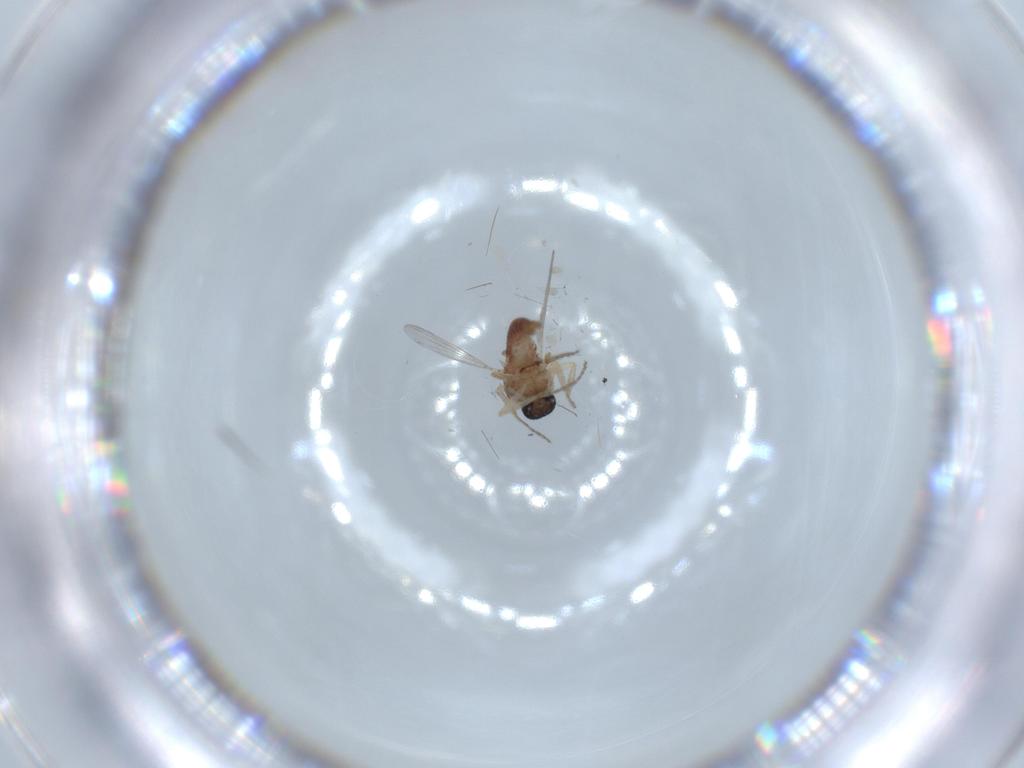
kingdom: Animalia
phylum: Arthropoda
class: Insecta
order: Diptera
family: Ceratopogonidae
